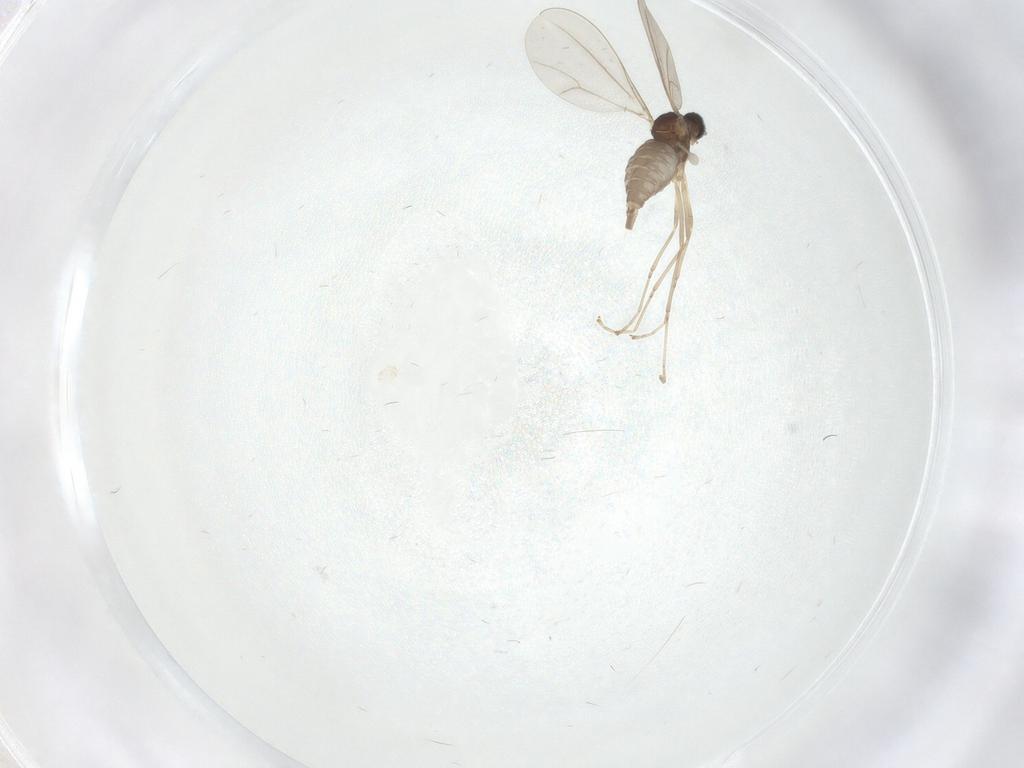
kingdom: Animalia
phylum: Arthropoda
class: Insecta
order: Diptera
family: Cecidomyiidae
